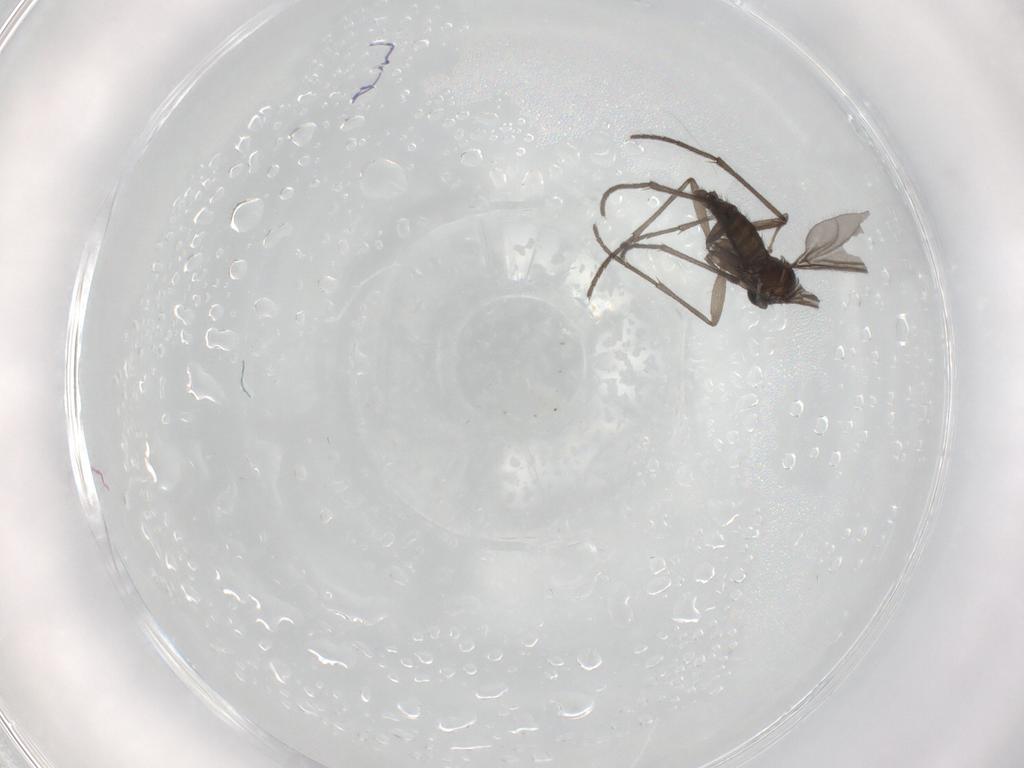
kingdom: Animalia
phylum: Arthropoda
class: Insecta
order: Diptera
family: Sciaridae
